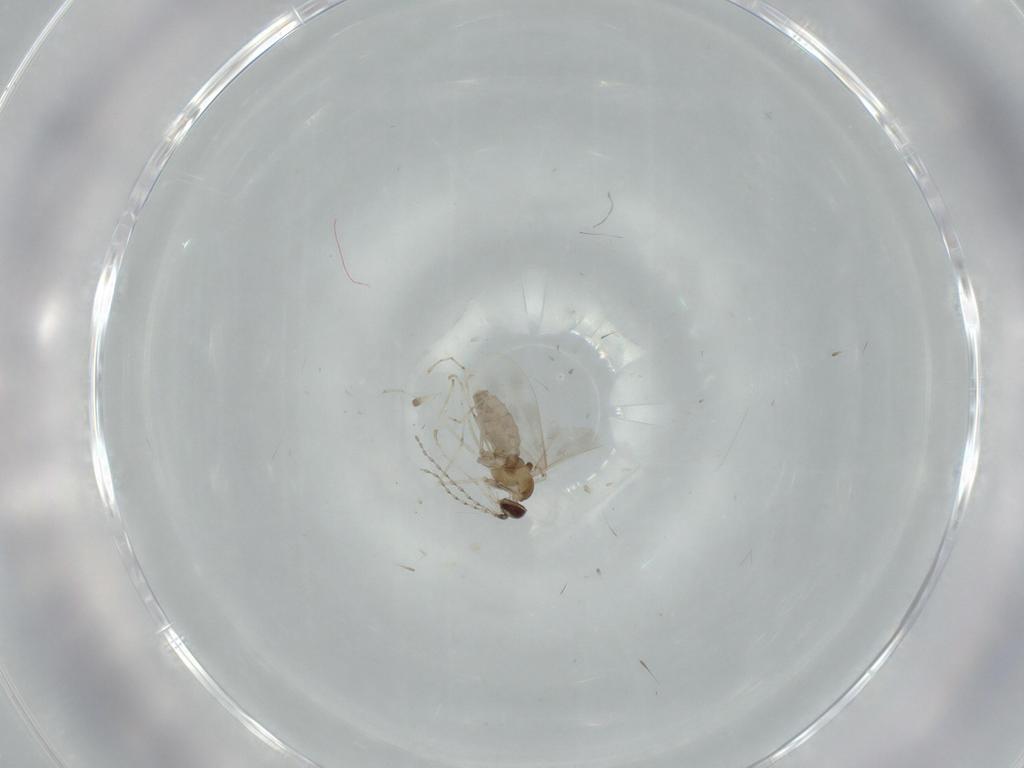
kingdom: Animalia
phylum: Arthropoda
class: Insecta
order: Diptera
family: Cecidomyiidae
